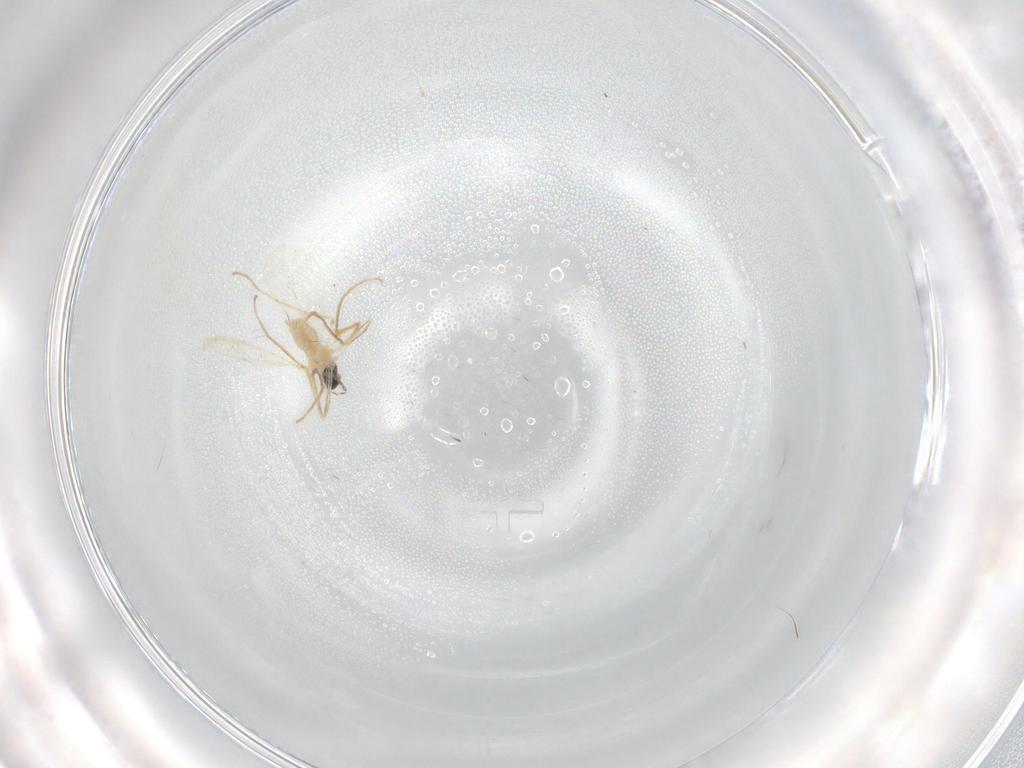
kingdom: Animalia
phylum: Arthropoda
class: Insecta
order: Diptera
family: Cecidomyiidae
